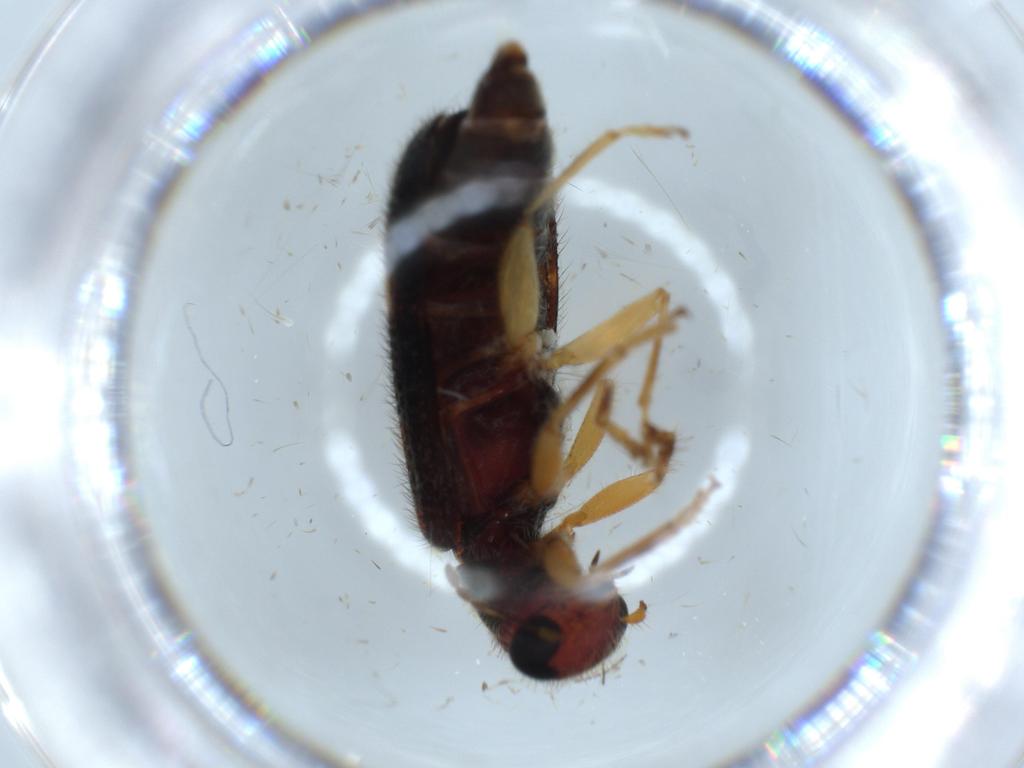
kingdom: Animalia
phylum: Arthropoda
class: Insecta
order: Coleoptera
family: Cleridae
